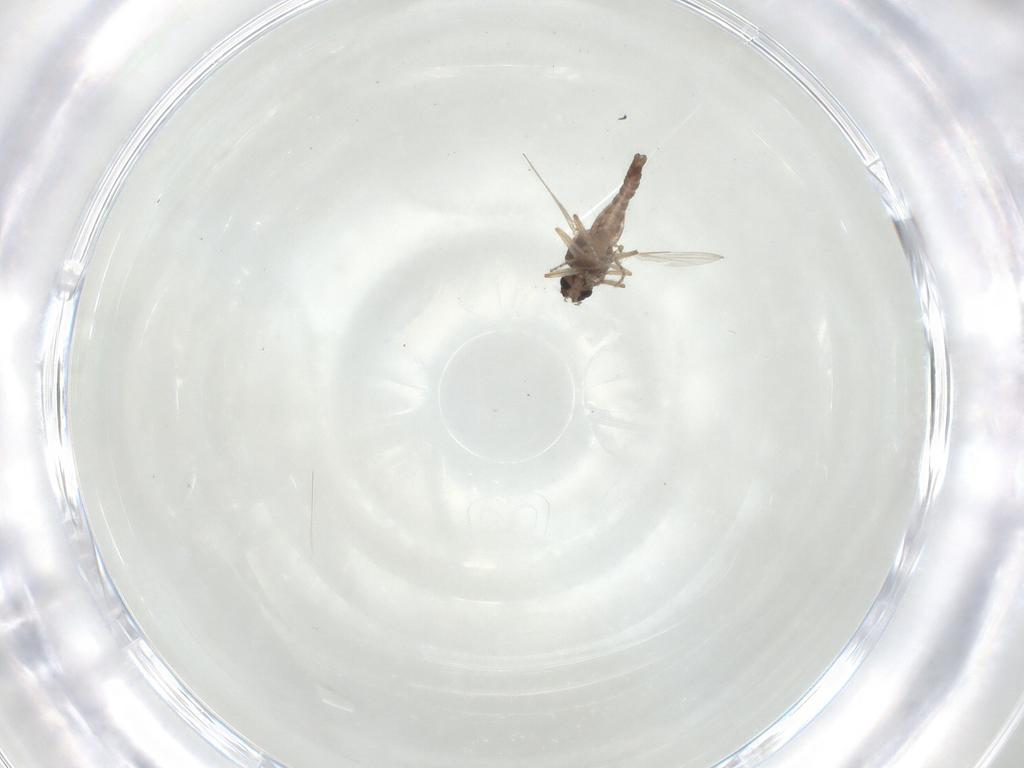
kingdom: Animalia
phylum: Arthropoda
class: Insecta
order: Diptera
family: Cecidomyiidae
